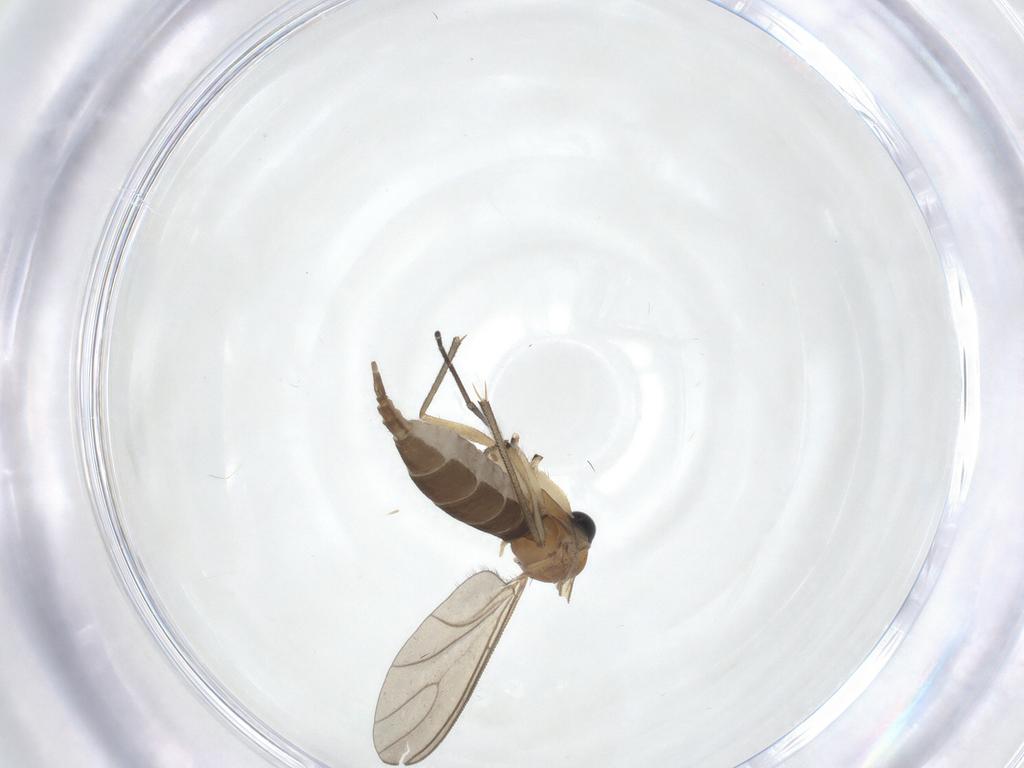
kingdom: Animalia
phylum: Arthropoda
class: Insecta
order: Diptera
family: Sciaridae
